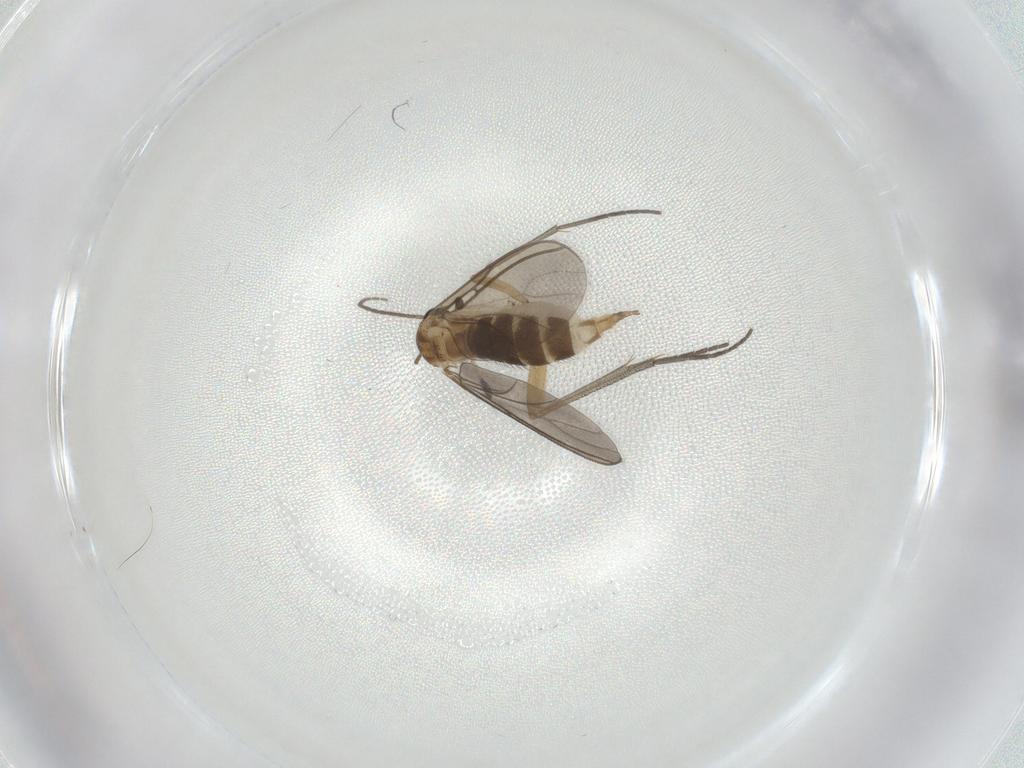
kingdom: Animalia
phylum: Arthropoda
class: Insecta
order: Diptera
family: Sciaridae
